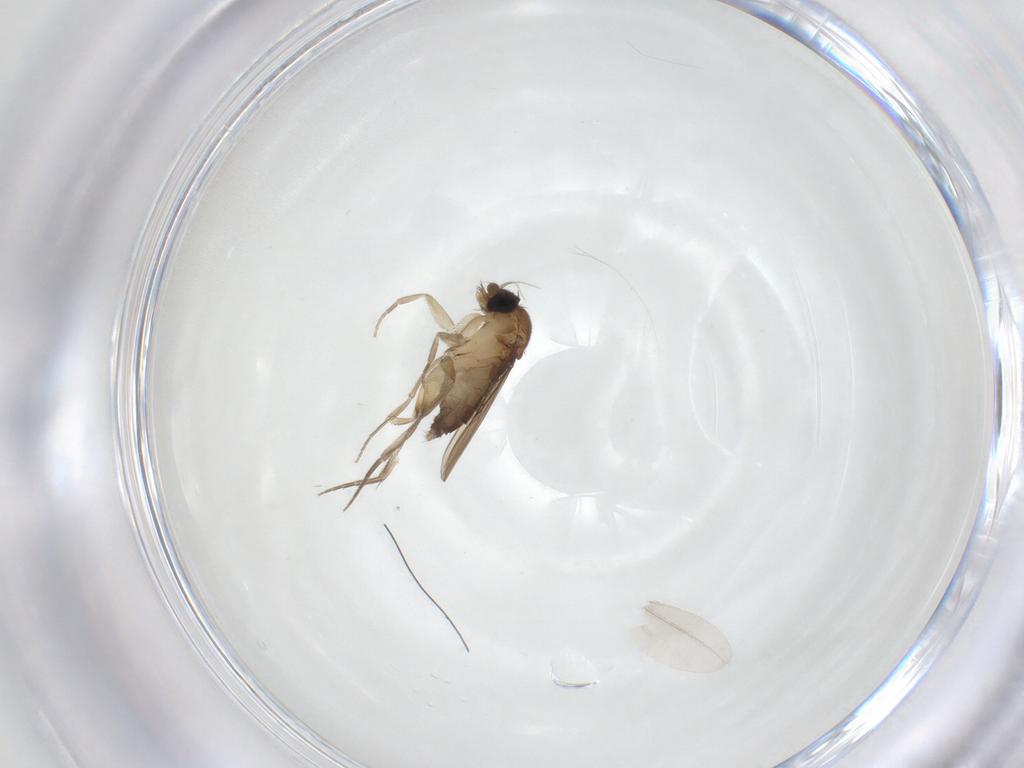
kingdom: Animalia
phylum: Arthropoda
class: Insecta
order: Diptera
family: Phoridae
